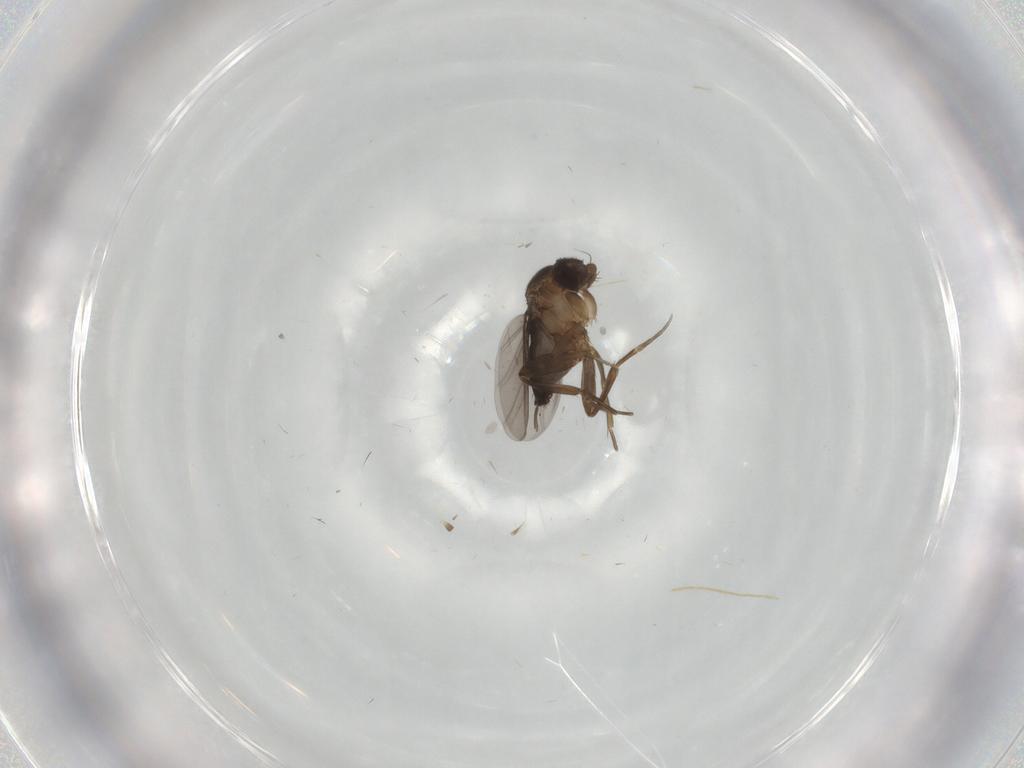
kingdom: Animalia
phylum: Arthropoda
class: Insecta
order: Diptera
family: Phoridae
